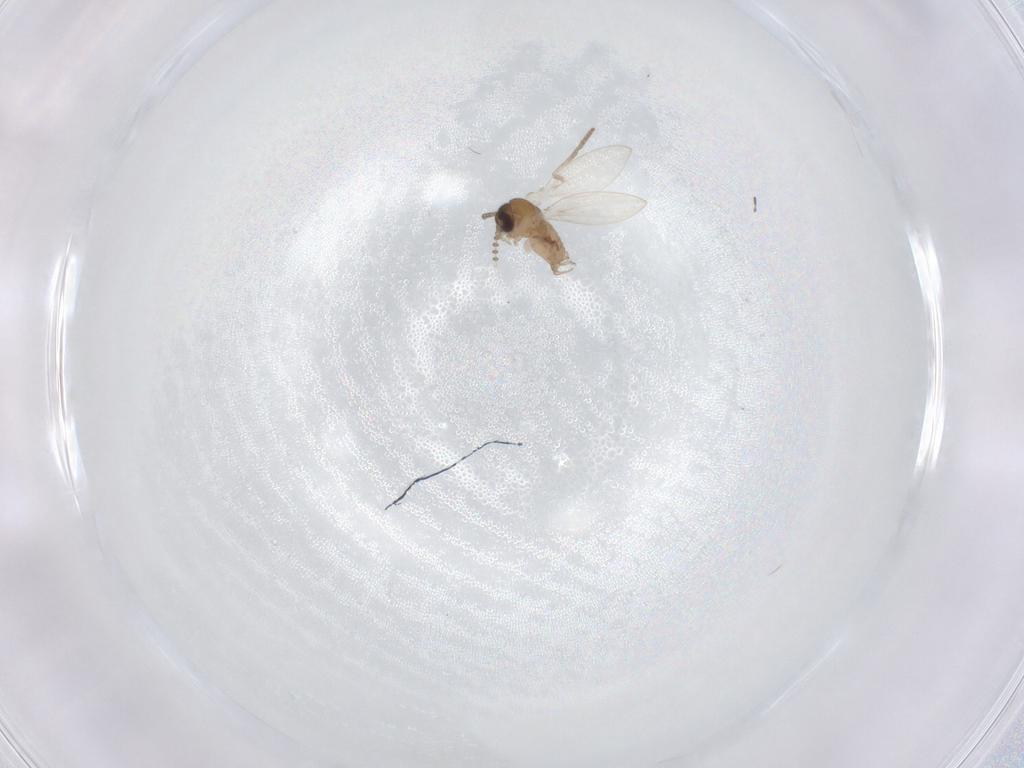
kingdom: Animalia
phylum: Arthropoda
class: Insecta
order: Diptera
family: Psychodidae
